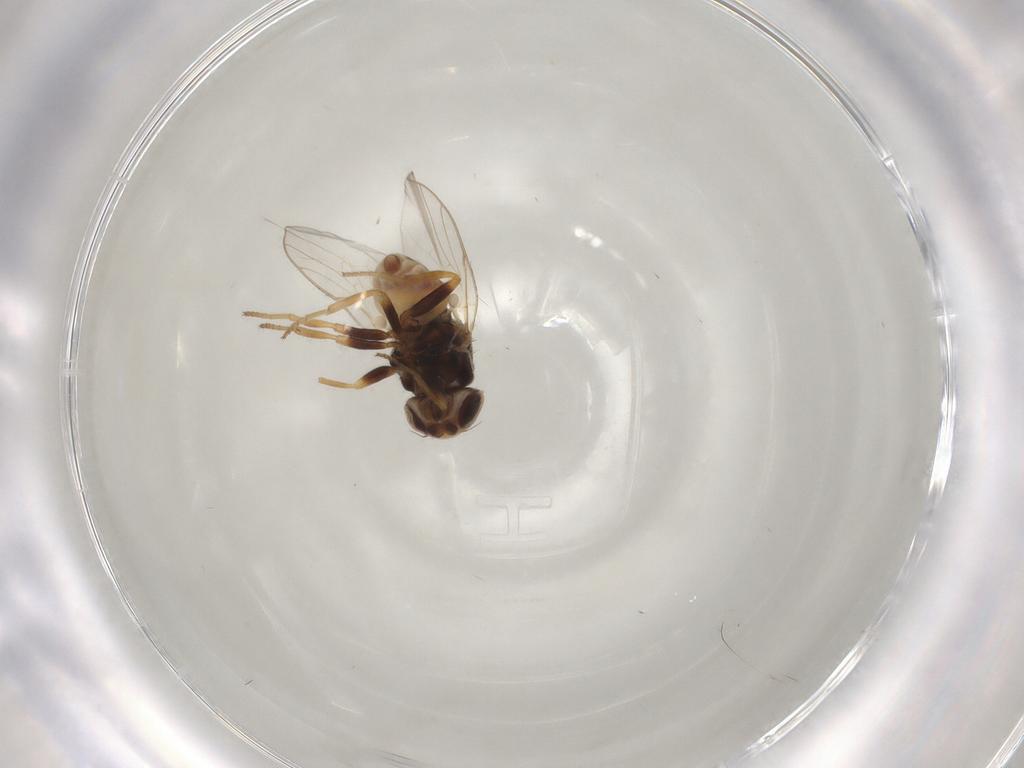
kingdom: Animalia
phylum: Arthropoda
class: Insecta
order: Diptera
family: Chloropidae
